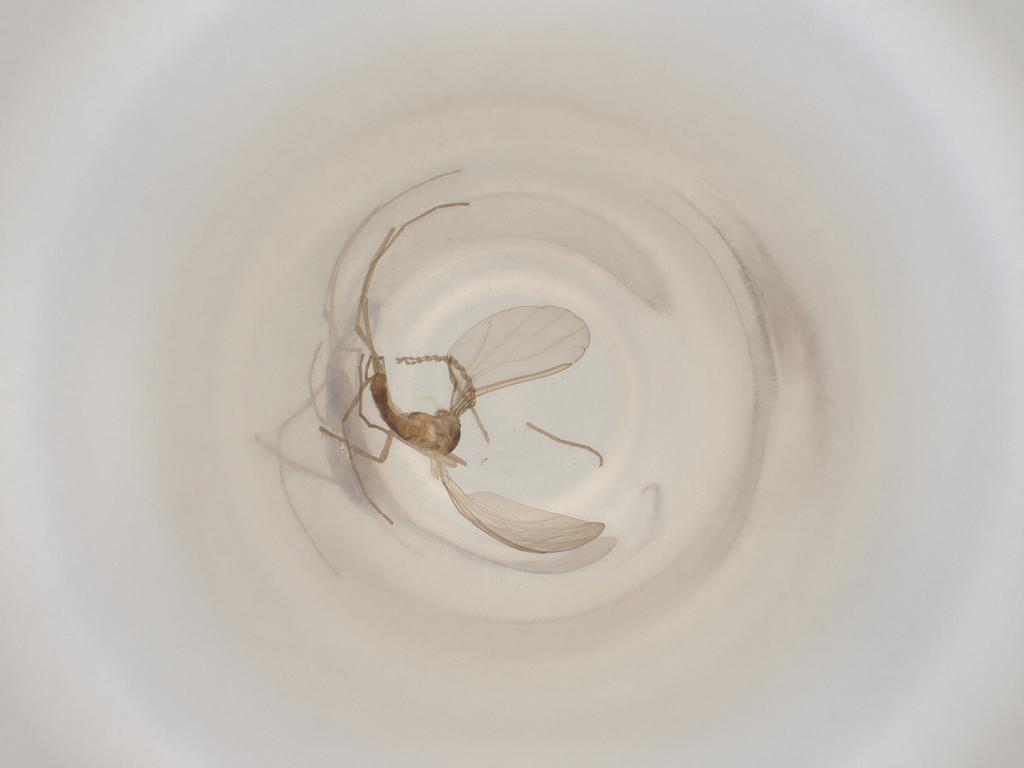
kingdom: Animalia
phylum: Arthropoda
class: Insecta
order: Diptera
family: Cecidomyiidae
